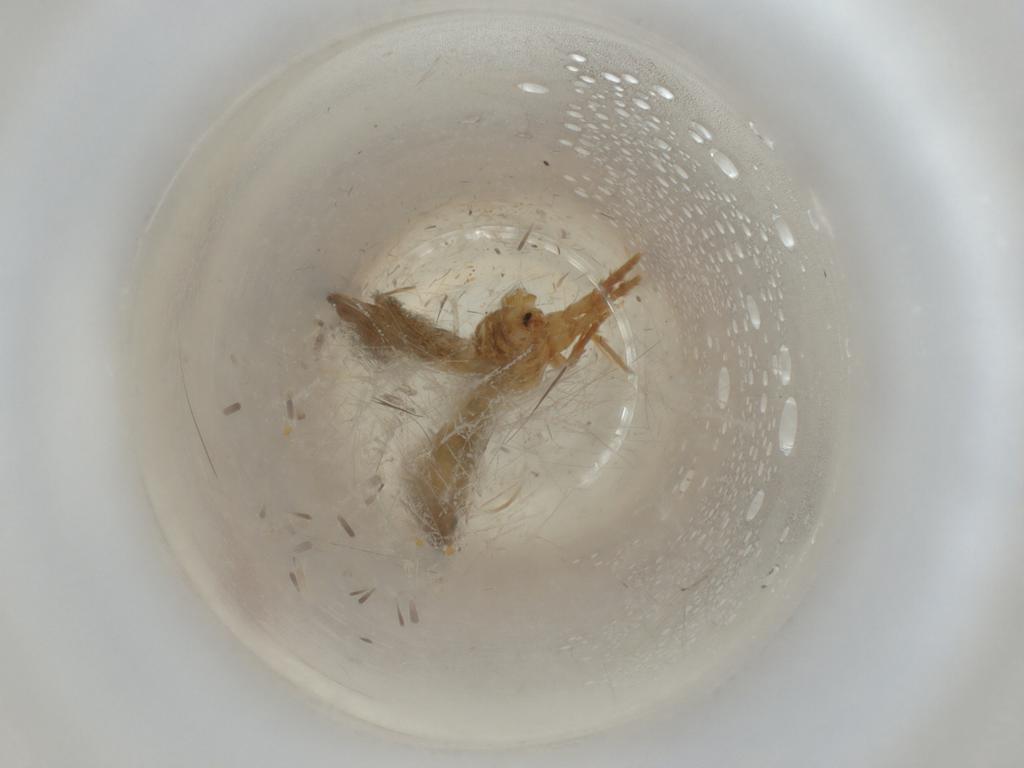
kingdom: Animalia
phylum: Arthropoda
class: Insecta
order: Lepidoptera
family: Tineidae
